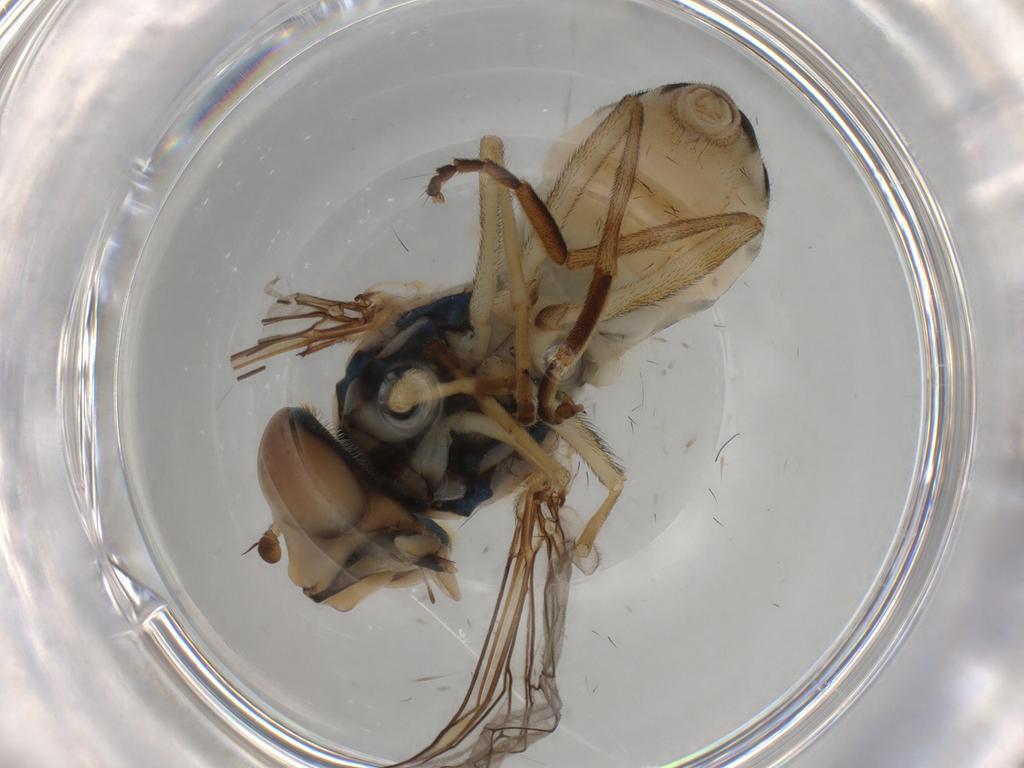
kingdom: Animalia
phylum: Arthropoda
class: Insecta
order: Diptera
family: Syrphidae
